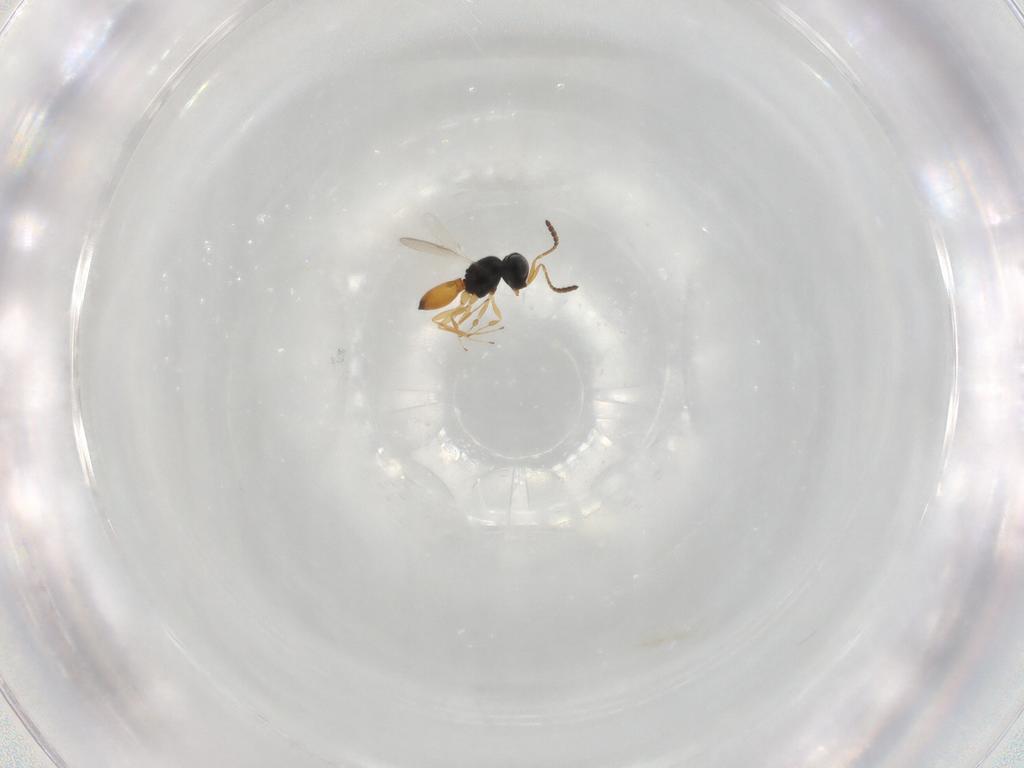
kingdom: Animalia
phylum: Arthropoda
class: Insecta
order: Hymenoptera
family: Scelionidae
